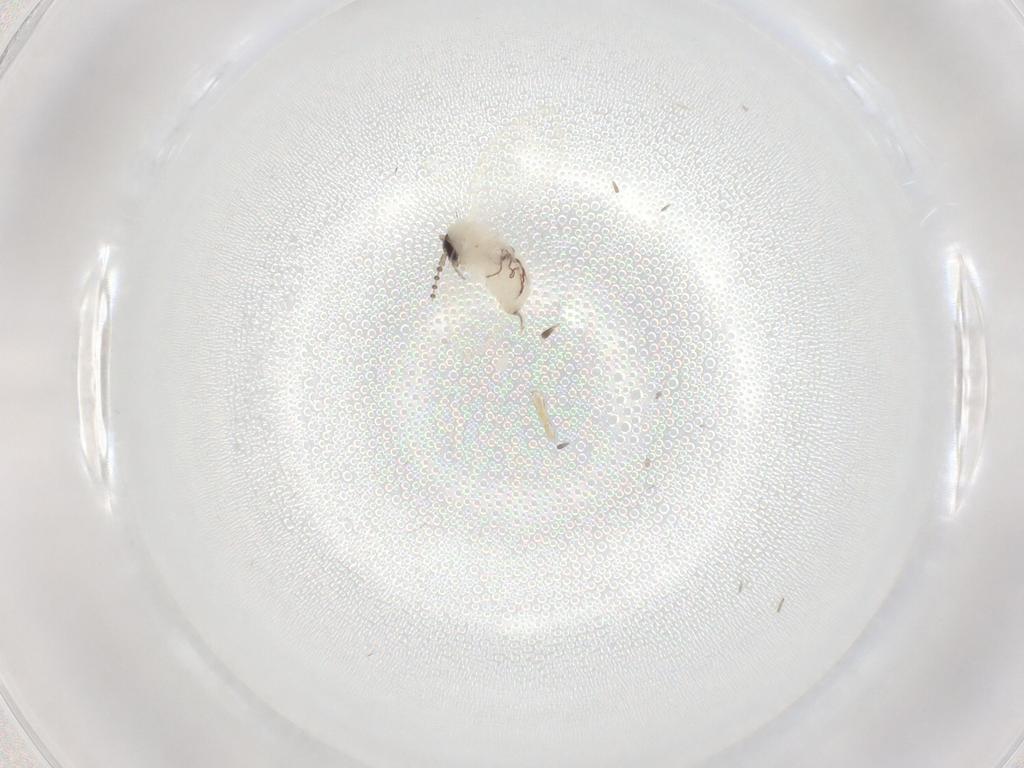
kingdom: Animalia
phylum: Arthropoda
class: Insecta
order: Diptera
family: Psychodidae
